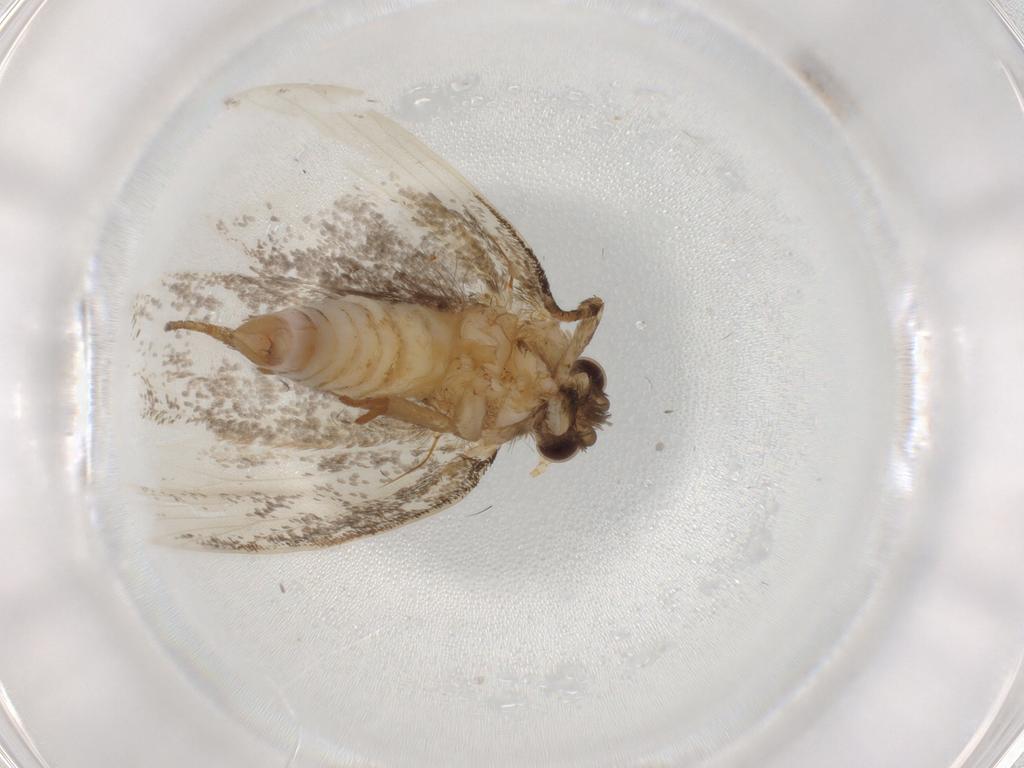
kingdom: Animalia
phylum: Arthropoda
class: Insecta
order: Lepidoptera
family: Tineidae
